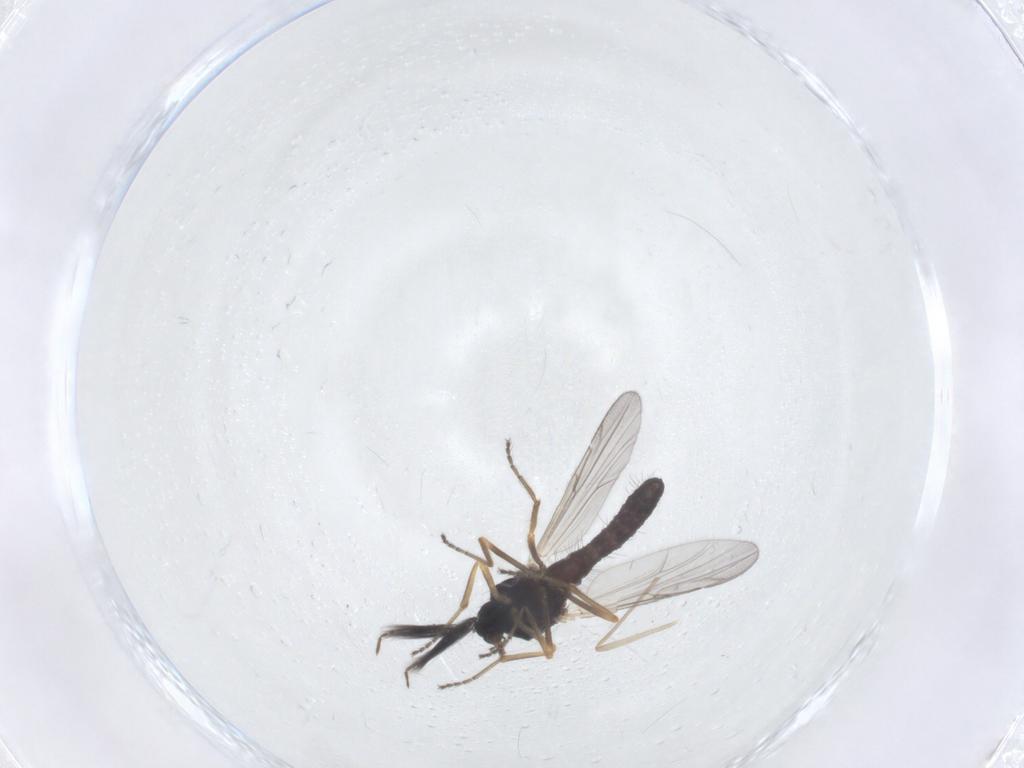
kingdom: Animalia
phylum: Arthropoda
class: Insecta
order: Diptera
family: Ceratopogonidae
